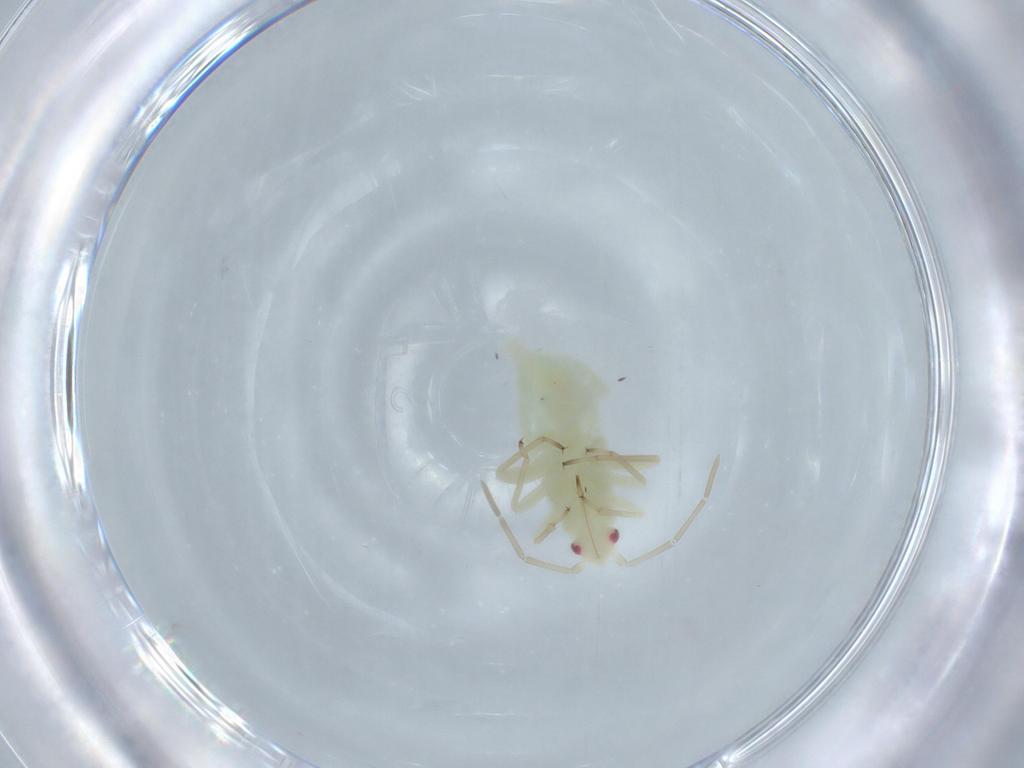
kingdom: Animalia
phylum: Arthropoda
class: Insecta
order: Hemiptera
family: Aleyrodidae
